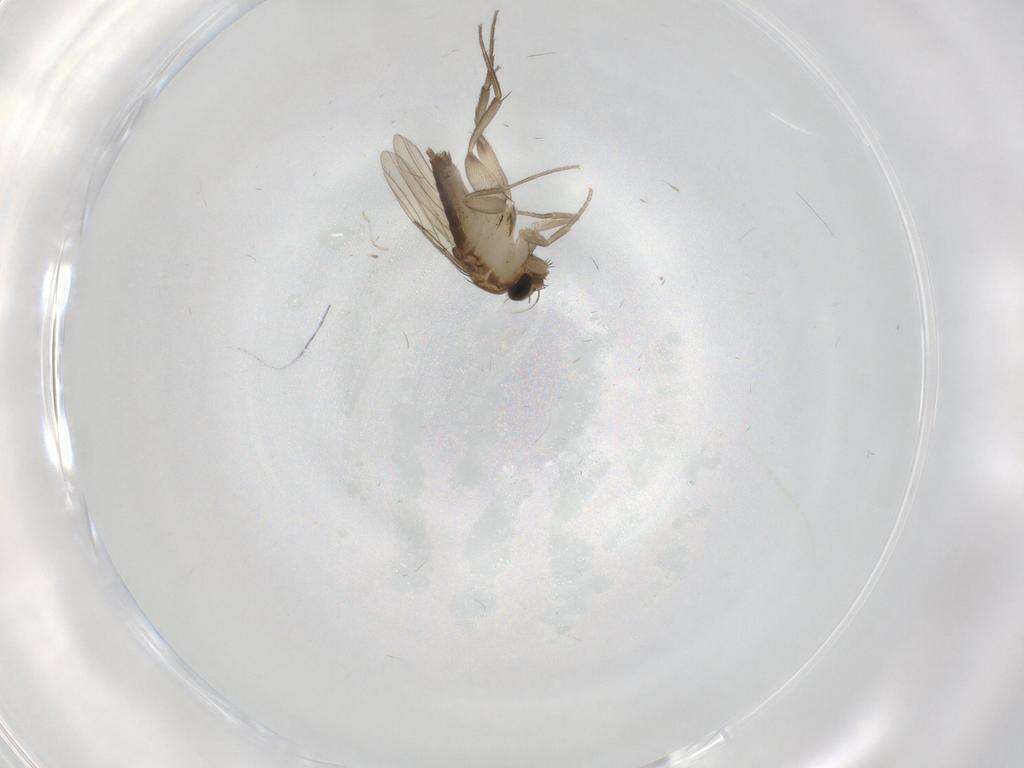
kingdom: Animalia
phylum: Arthropoda
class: Insecta
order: Diptera
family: Phoridae
